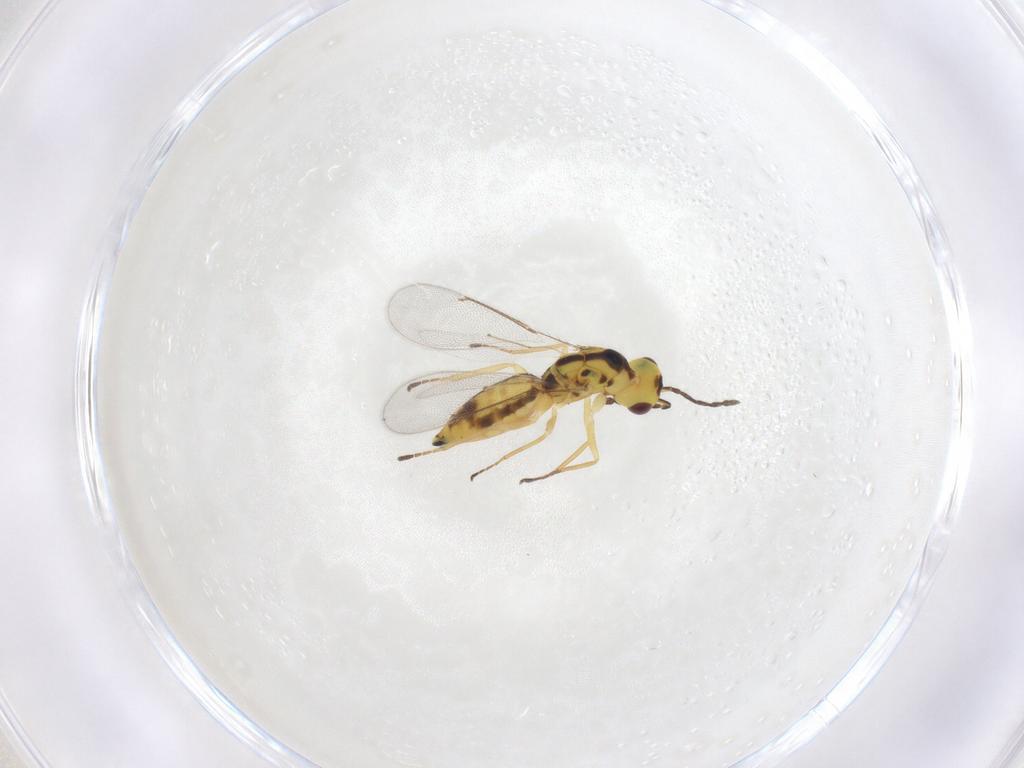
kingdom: Animalia
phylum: Arthropoda
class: Insecta
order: Hymenoptera
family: Eulophidae
